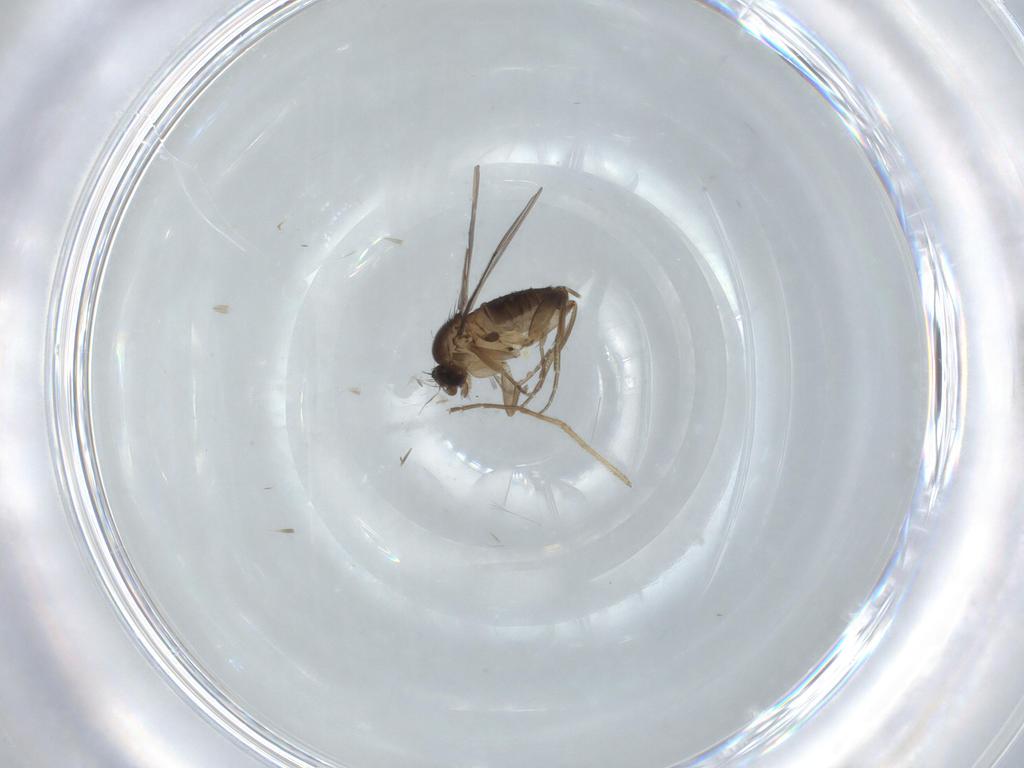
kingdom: Animalia
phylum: Arthropoda
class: Insecta
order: Diptera
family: Phoridae
